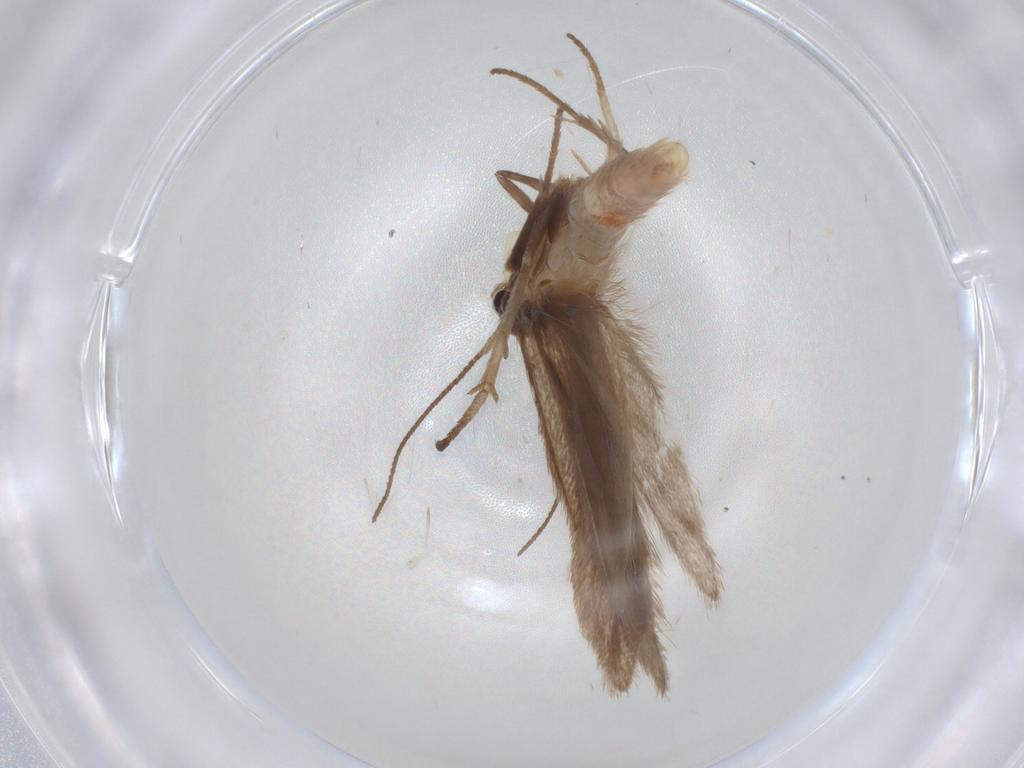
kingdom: Animalia
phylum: Arthropoda
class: Insecta
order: Lepidoptera
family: Limacodidae
